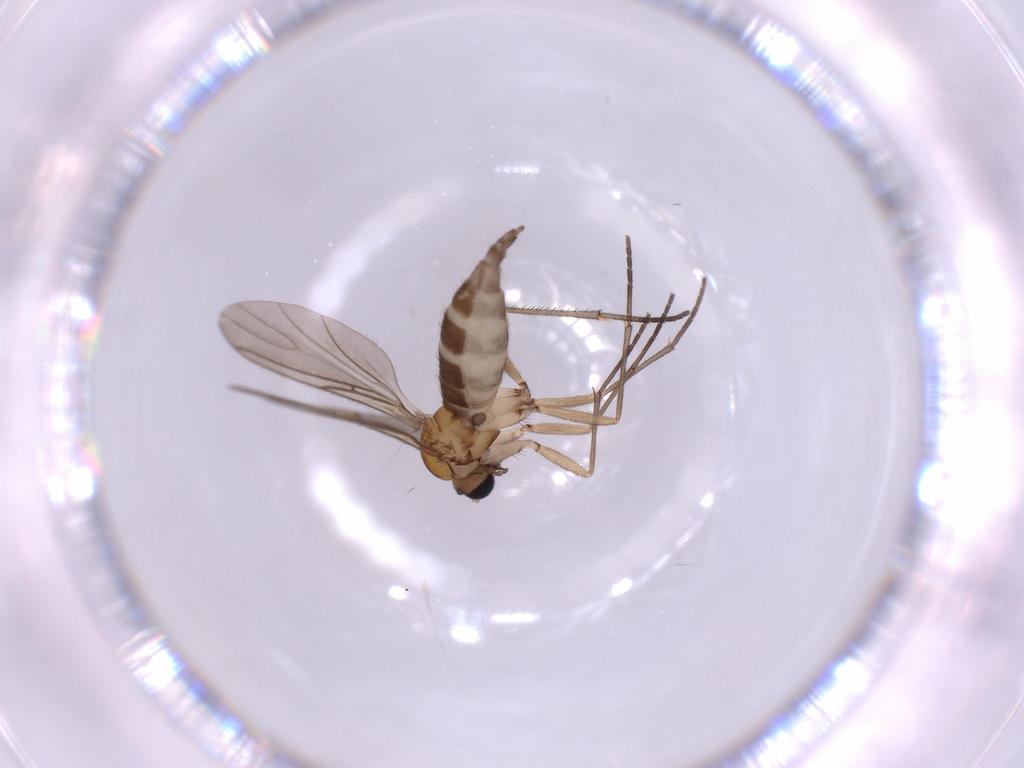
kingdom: Animalia
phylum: Arthropoda
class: Insecta
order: Diptera
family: Sciaridae
